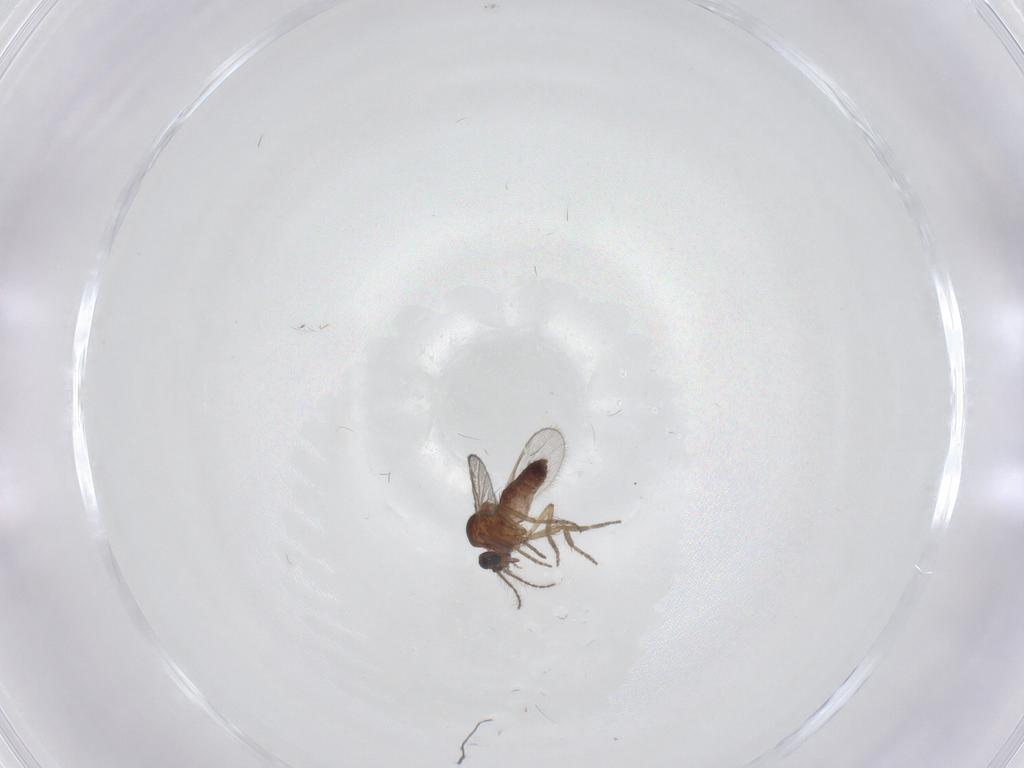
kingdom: Animalia
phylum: Arthropoda
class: Insecta
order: Diptera
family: Ceratopogonidae
